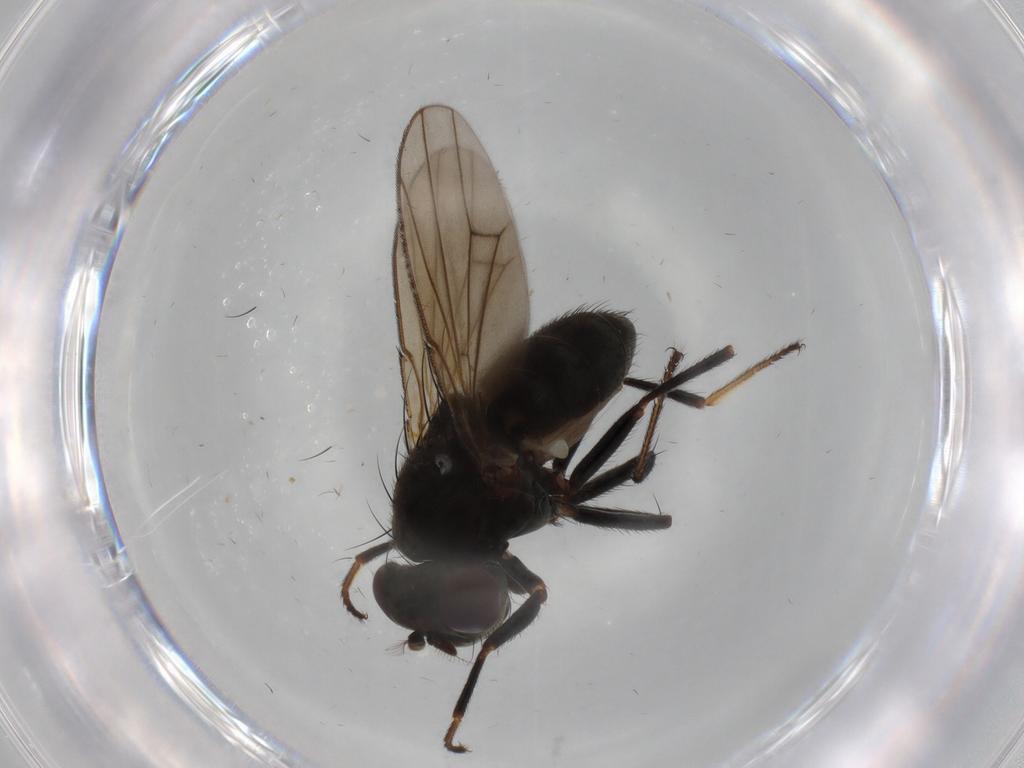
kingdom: Animalia
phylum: Arthropoda
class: Insecta
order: Diptera
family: Ephydridae
